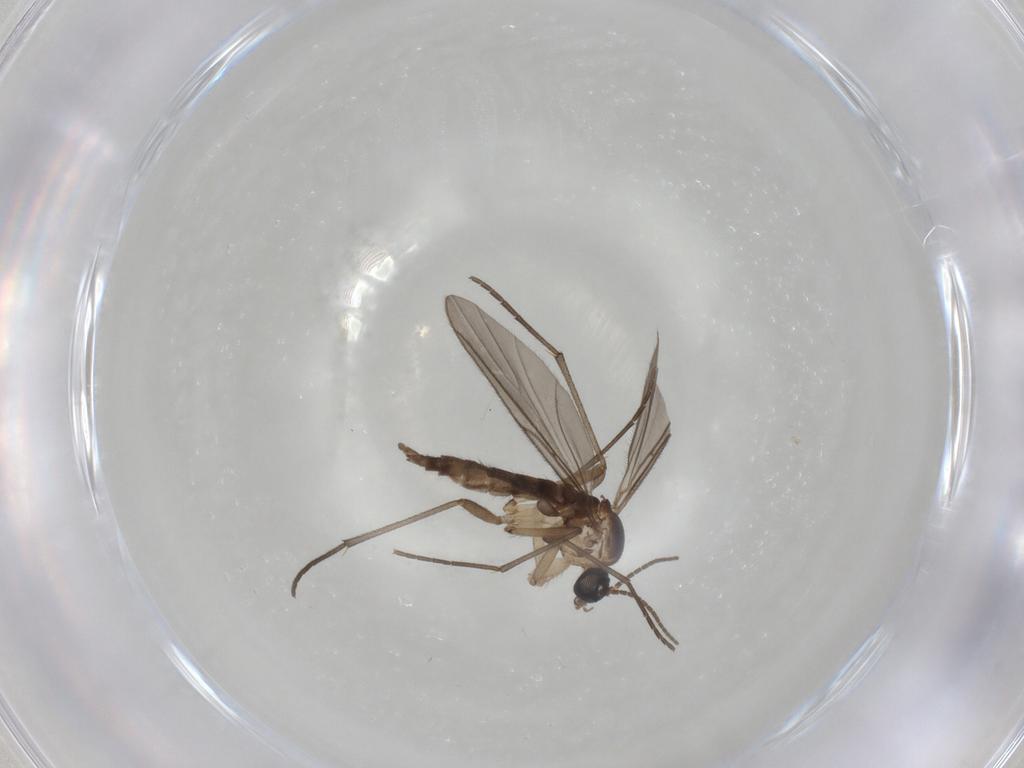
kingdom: Animalia
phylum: Arthropoda
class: Insecta
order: Diptera
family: Sciaridae
